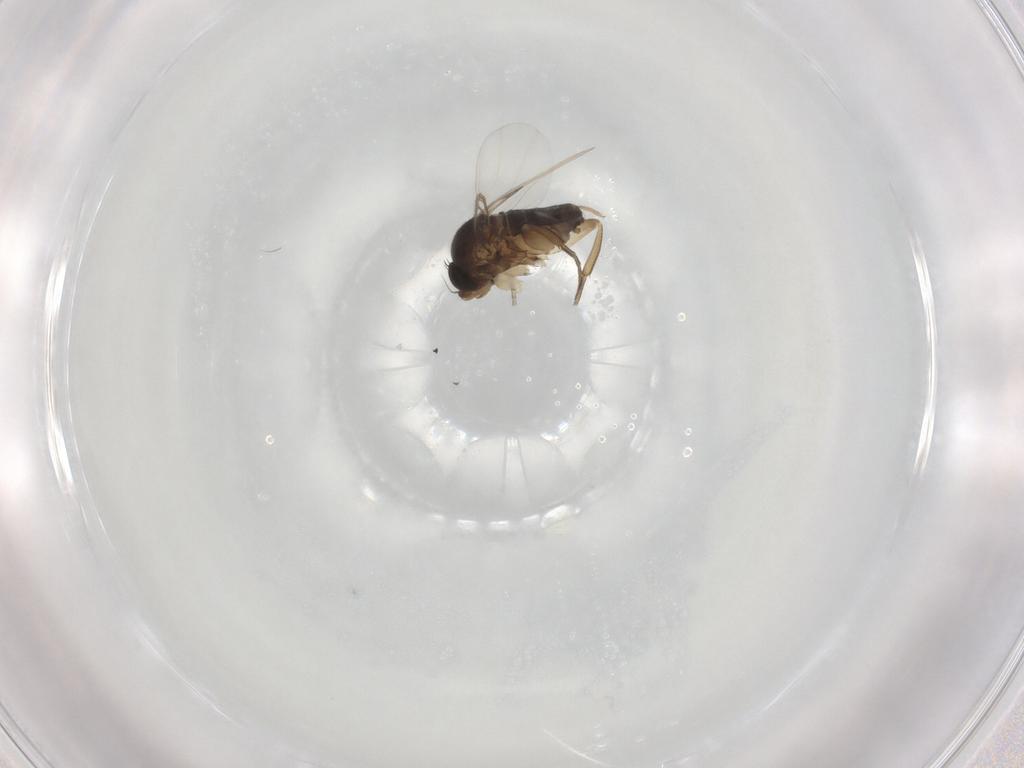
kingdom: Animalia
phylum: Arthropoda
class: Insecta
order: Diptera
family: Phoridae
